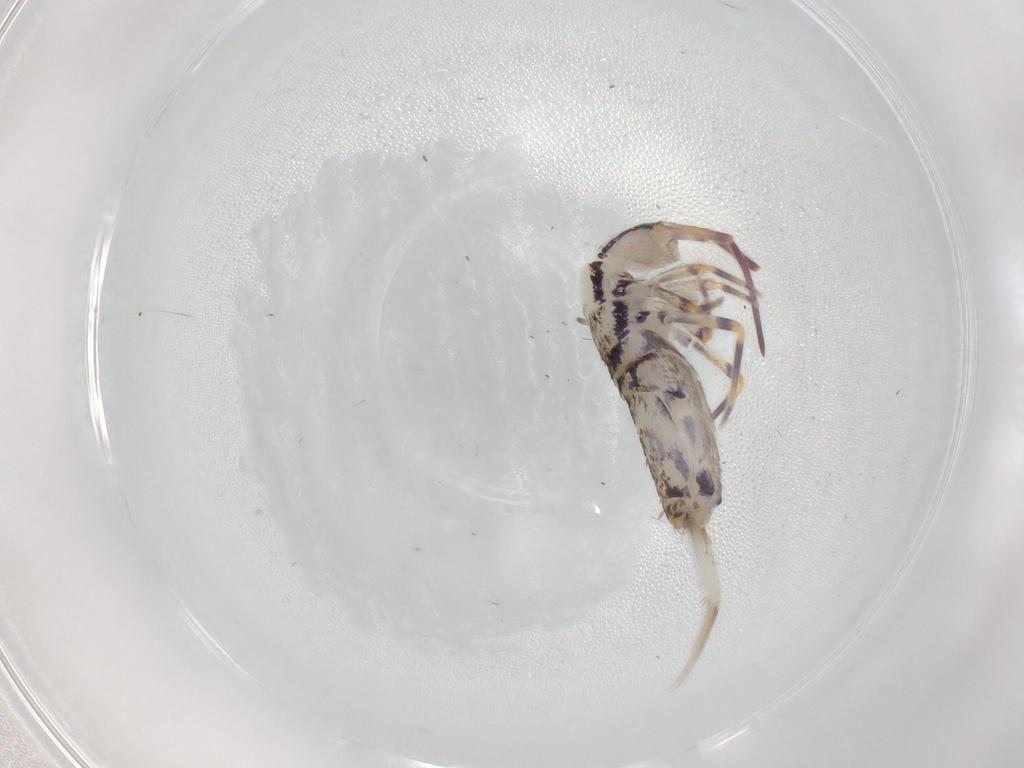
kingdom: Animalia
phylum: Arthropoda
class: Collembola
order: Entomobryomorpha
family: Entomobryidae
